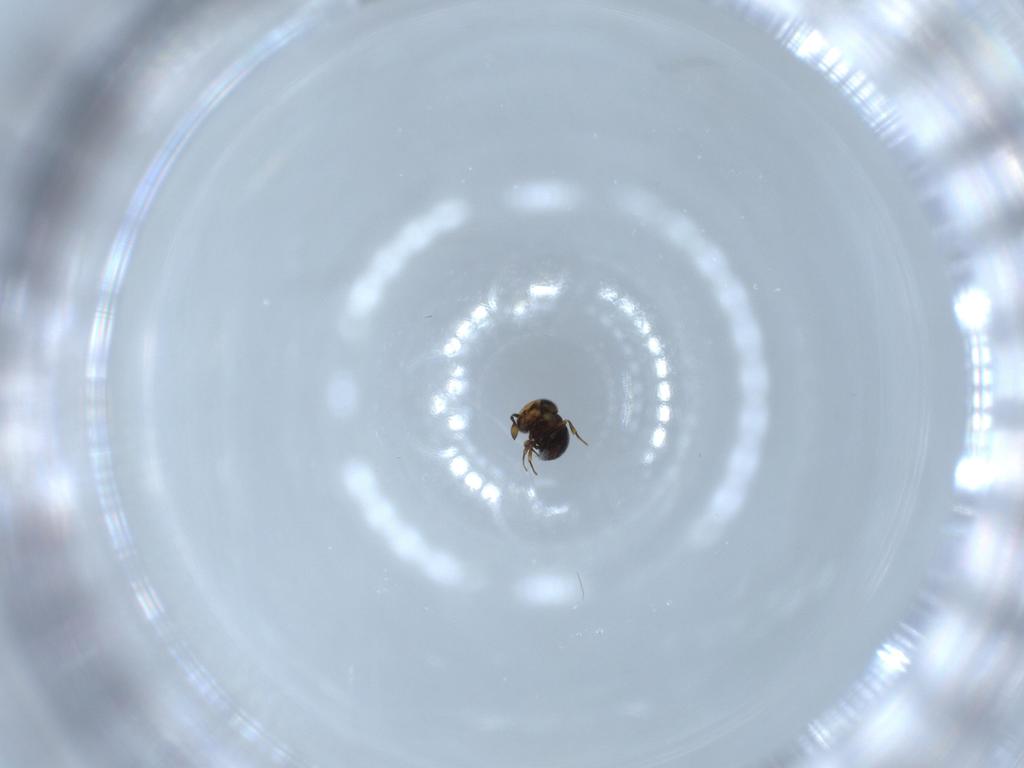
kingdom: Animalia
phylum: Arthropoda
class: Insecta
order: Hymenoptera
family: Scelionidae
